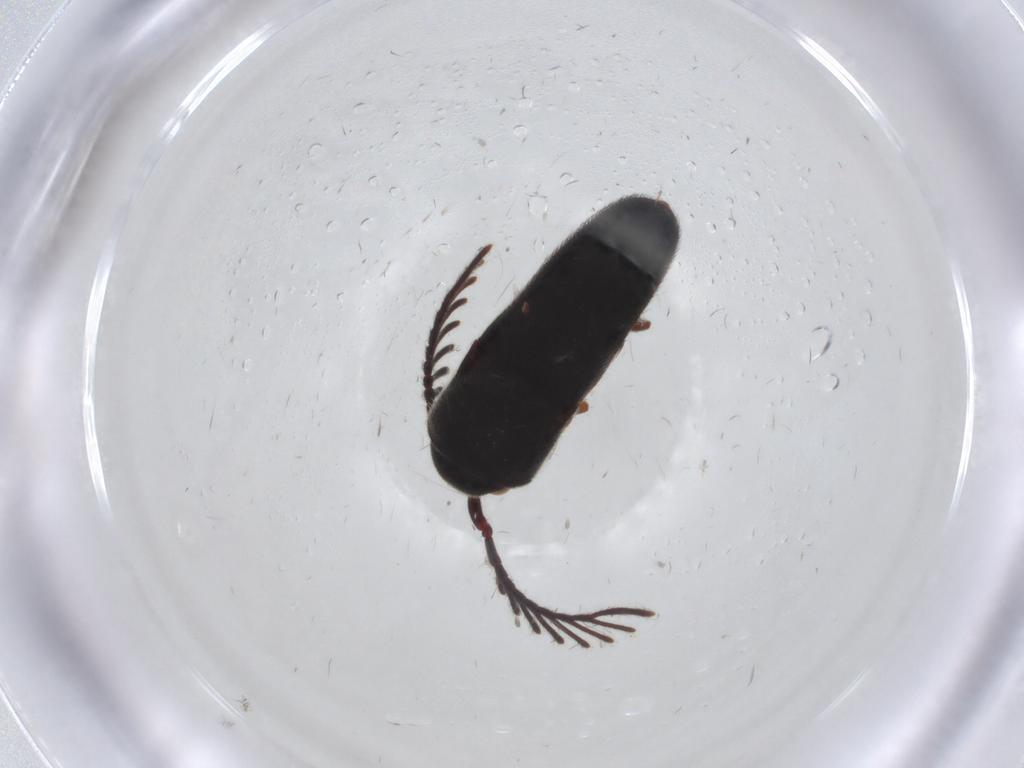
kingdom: Animalia
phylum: Arthropoda
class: Insecta
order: Coleoptera
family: Eucnemidae
